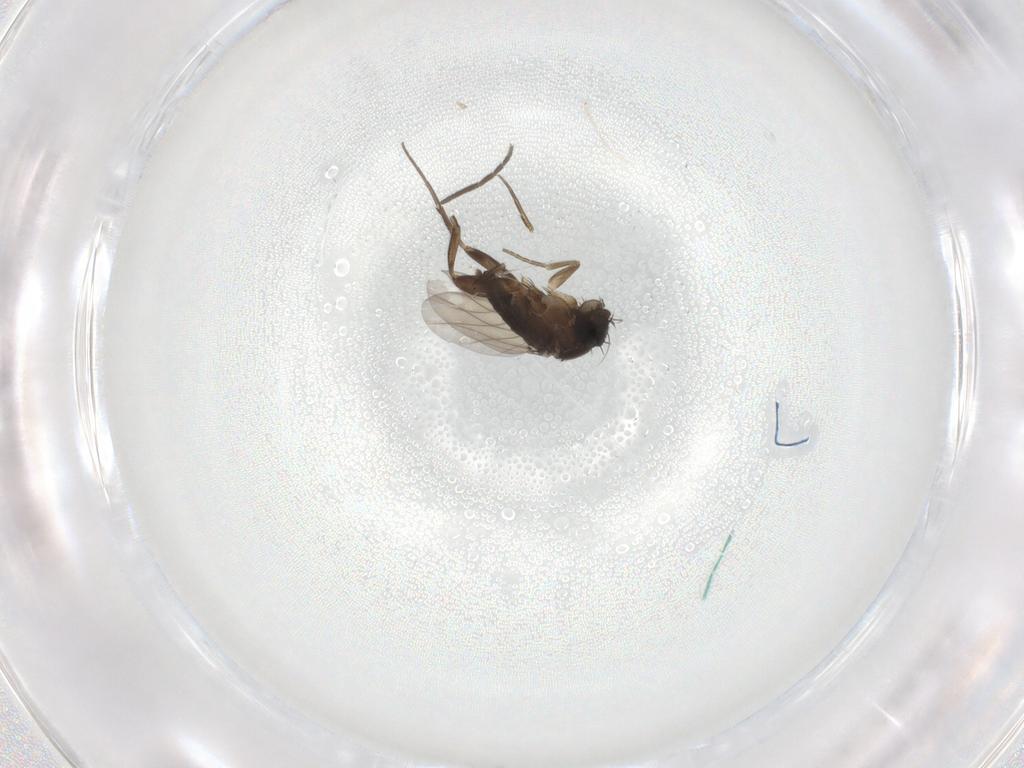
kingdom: Animalia
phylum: Arthropoda
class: Insecta
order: Diptera
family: Phoridae
